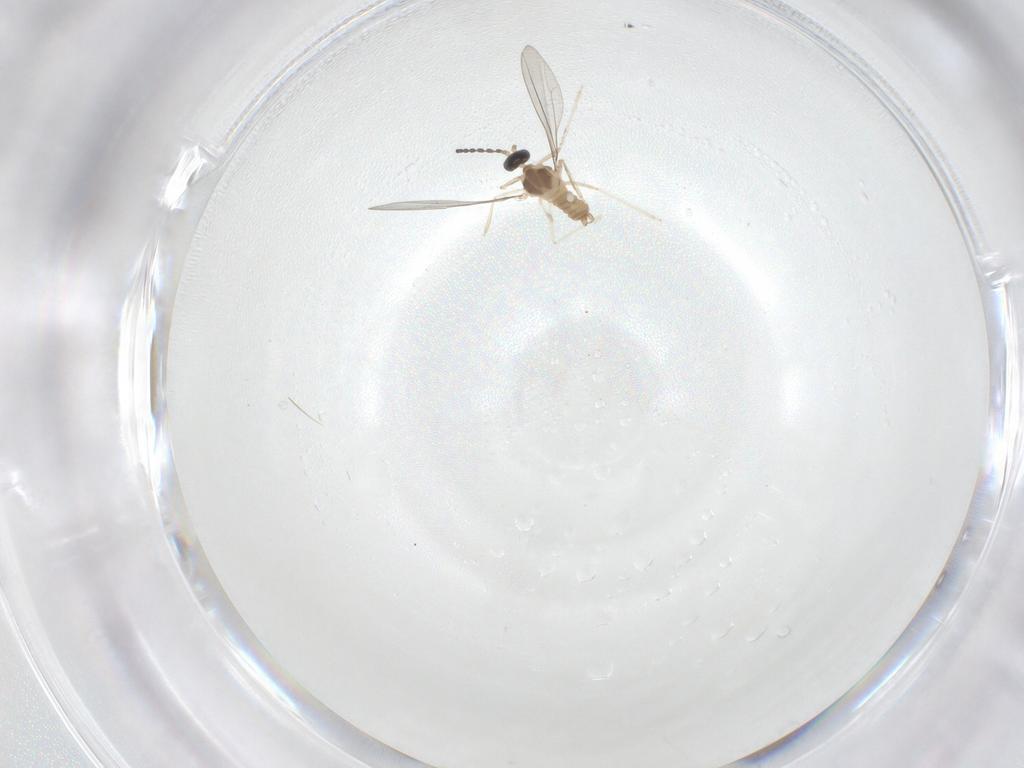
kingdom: Animalia
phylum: Arthropoda
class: Insecta
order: Diptera
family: Cecidomyiidae
